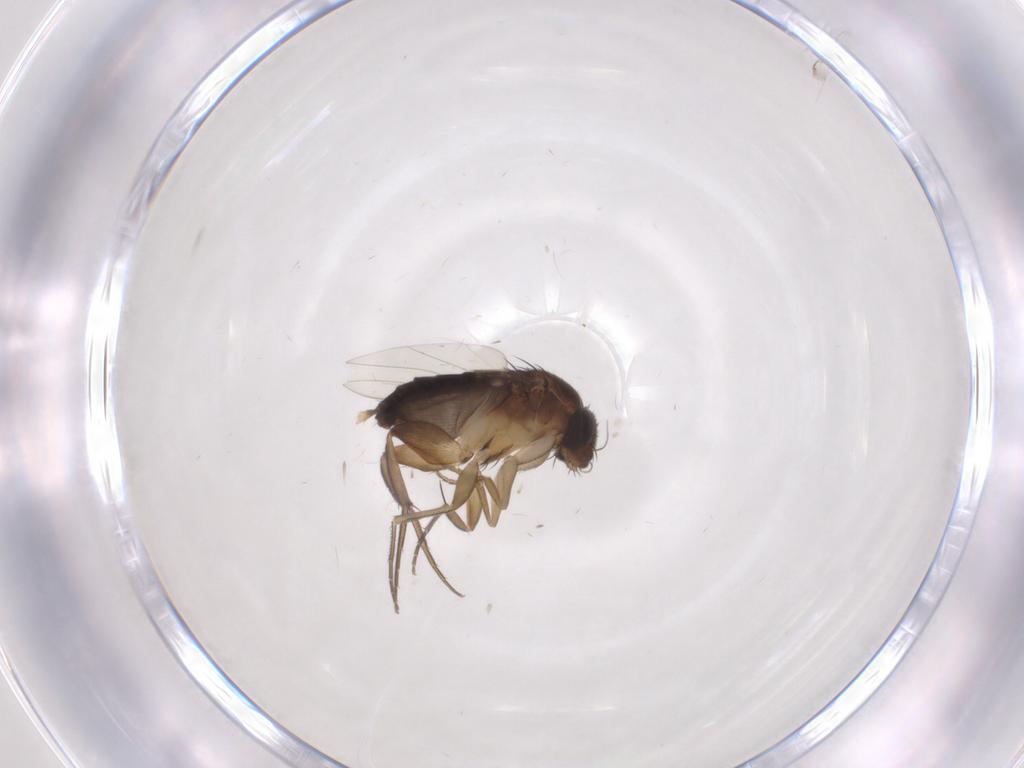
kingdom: Animalia
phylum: Arthropoda
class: Insecta
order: Diptera
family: Phoridae
